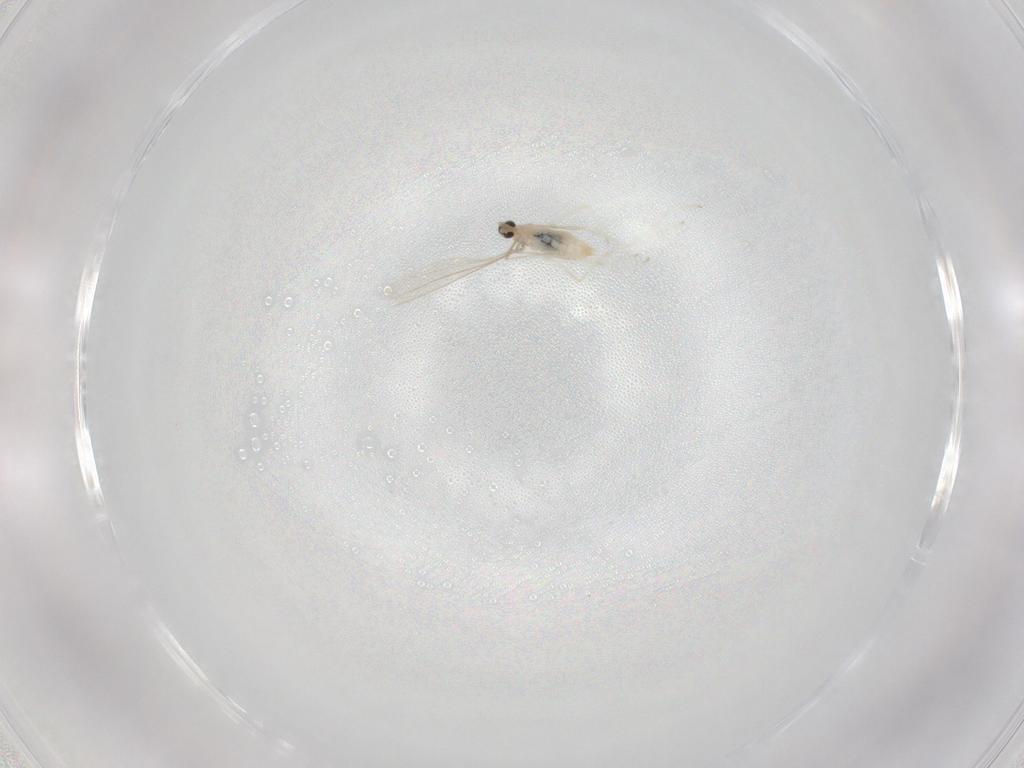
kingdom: Animalia
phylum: Arthropoda
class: Insecta
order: Diptera
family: Cecidomyiidae
